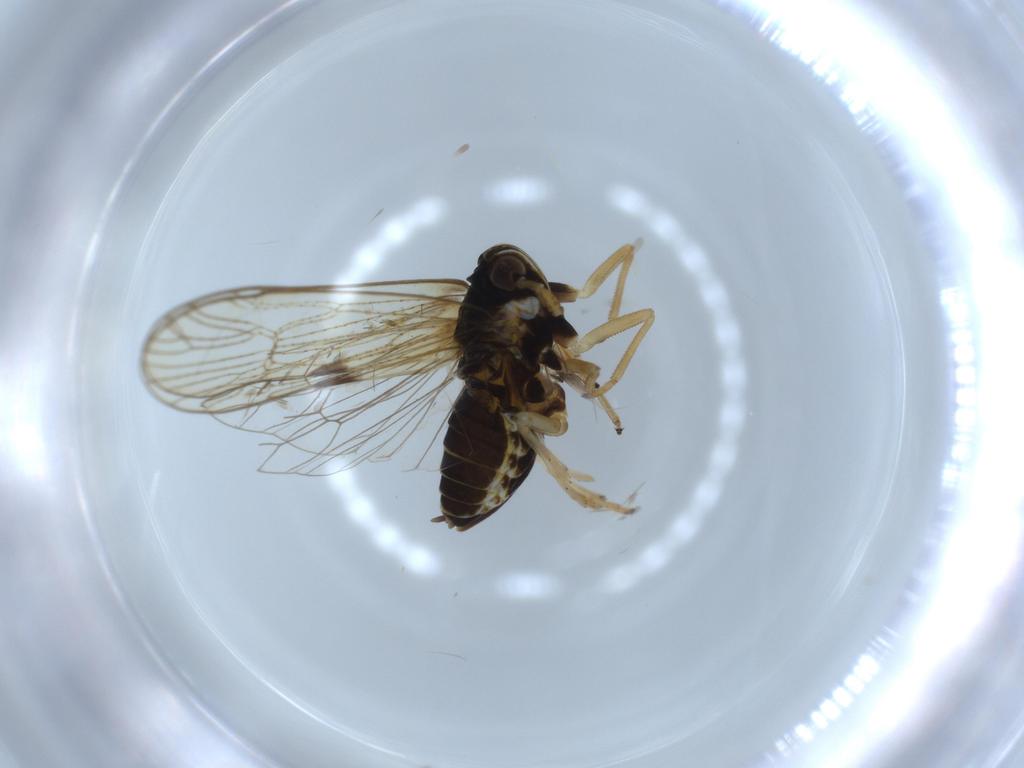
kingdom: Animalia
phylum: Arthropoda
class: Insecta
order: Hemiptera
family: Miridae
